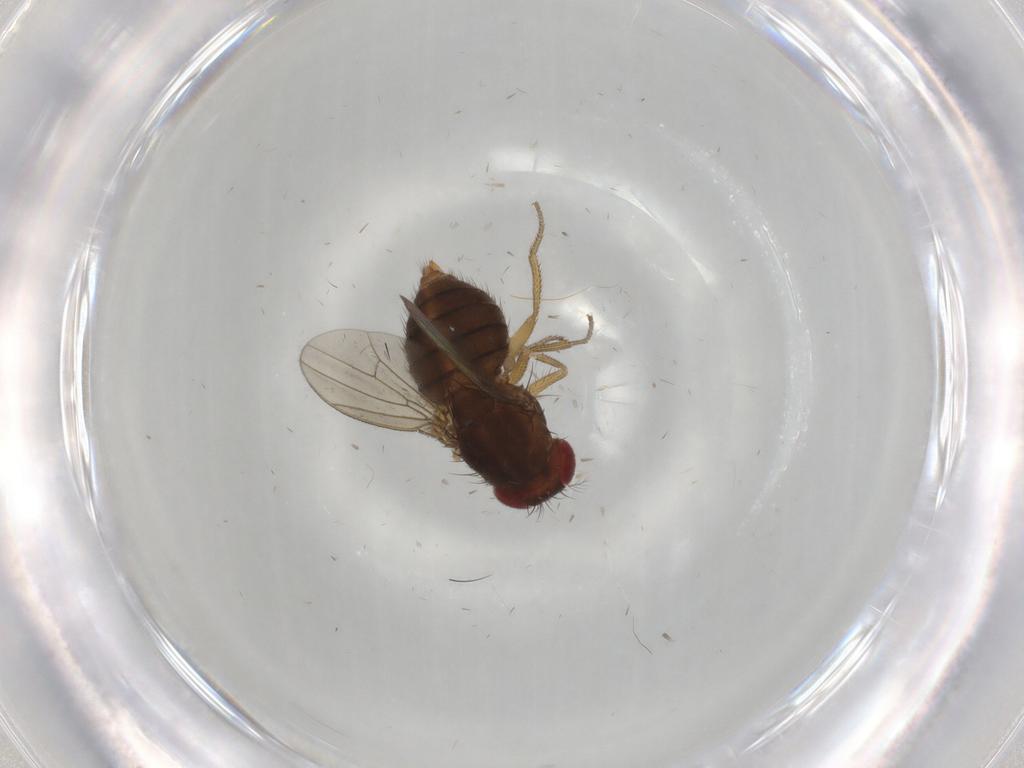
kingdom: Animalia
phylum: Arthropoda
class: Insecta
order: Diptera
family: Drosophilidae
